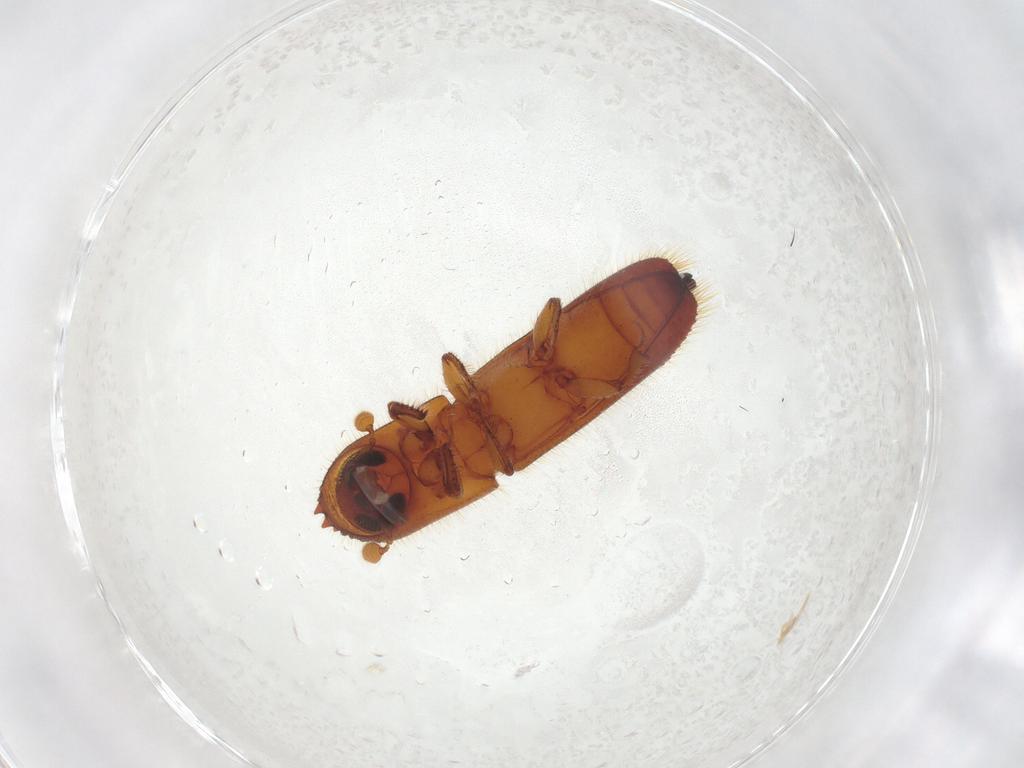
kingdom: Animalia
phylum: Arthropoda
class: Insecta
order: Coleoptera
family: Curculionidae
